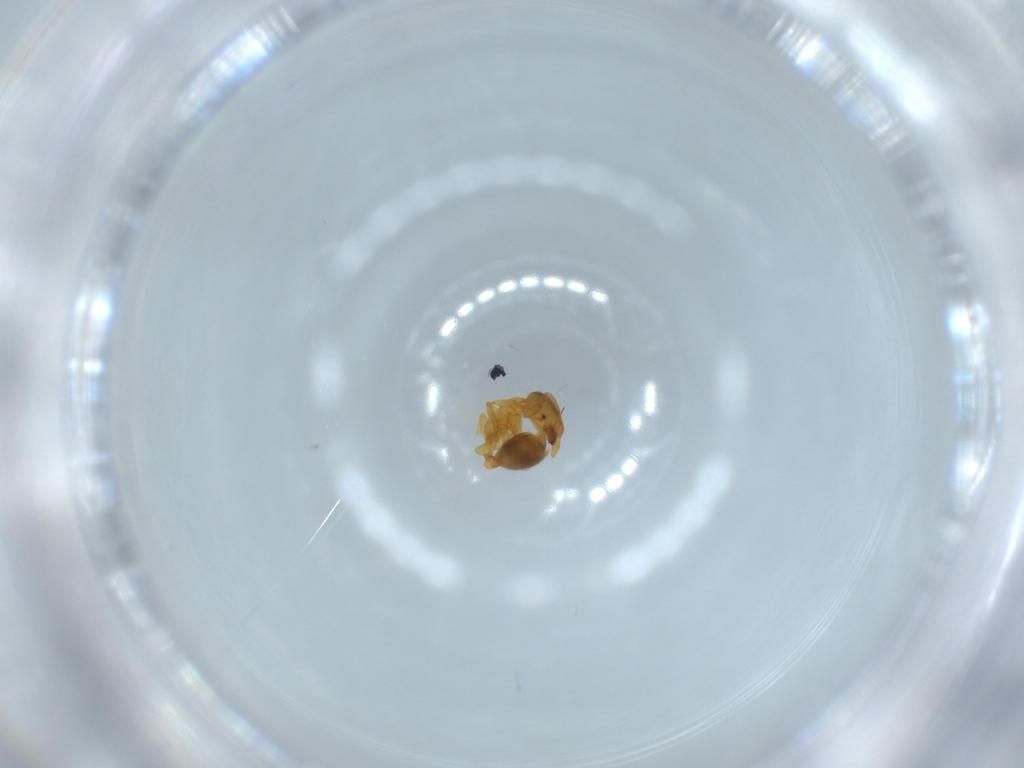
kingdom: Animalia
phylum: Arthropoda
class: Insecta
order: Hymenoptera
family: Formicidae
